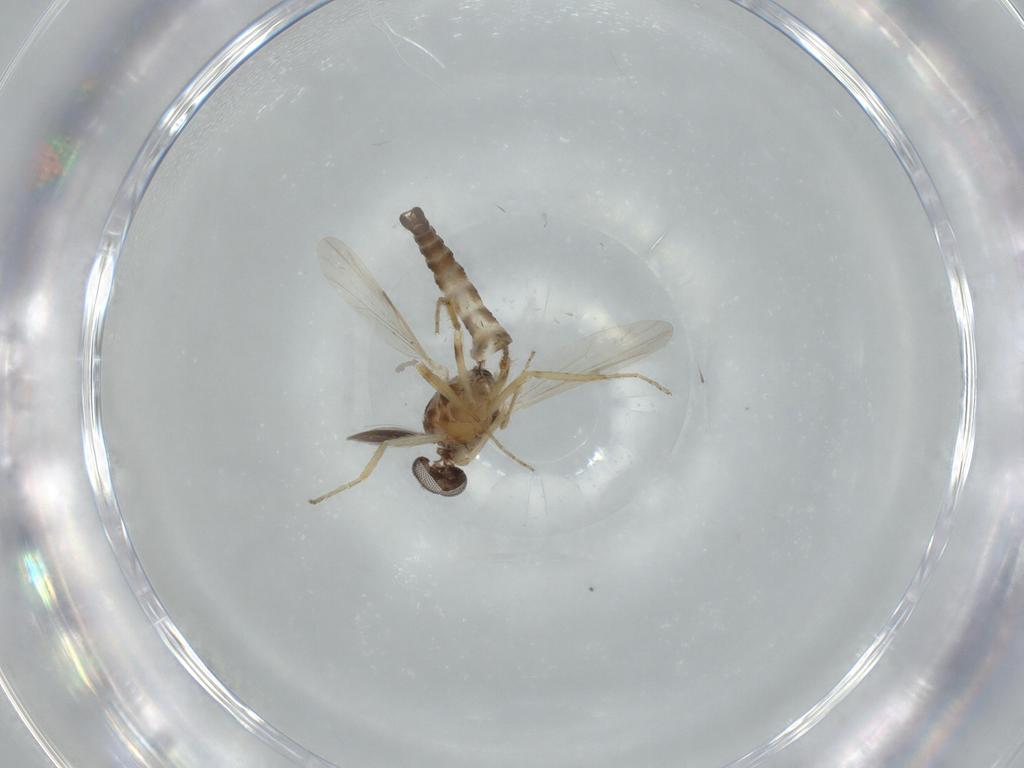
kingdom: Animalia
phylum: Arthropoda
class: Insecta
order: Diptera
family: Ceratopogonidae
